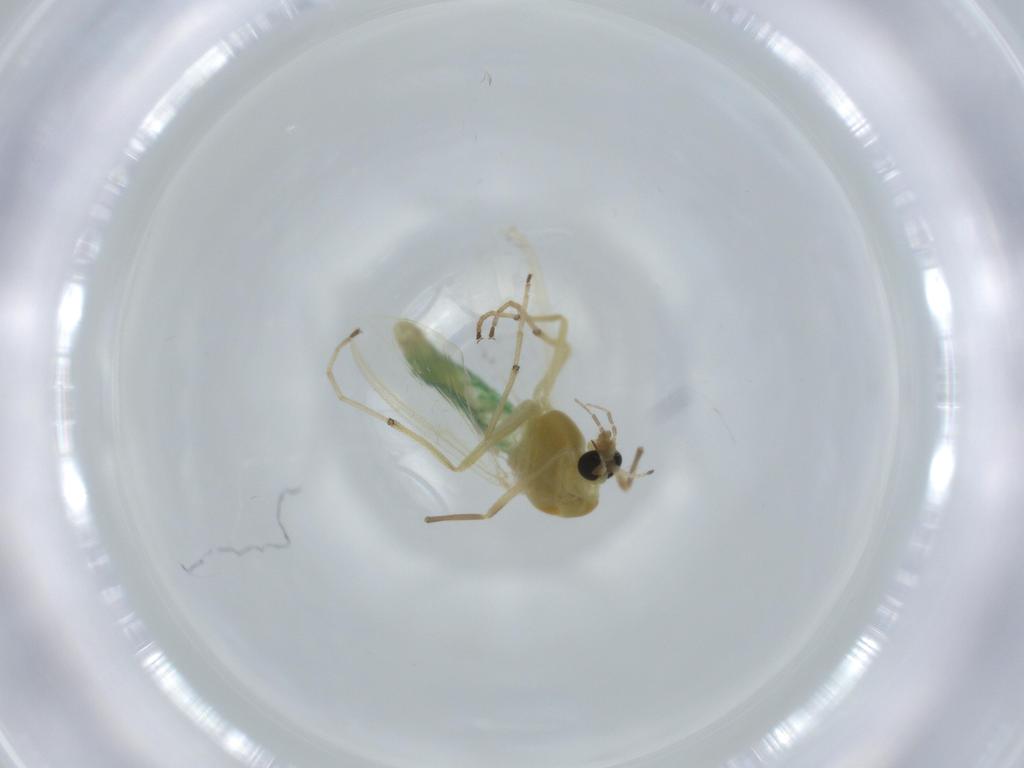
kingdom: Animalia
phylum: Arthropoda
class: Insecta
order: Diptera
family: Chironomidae
